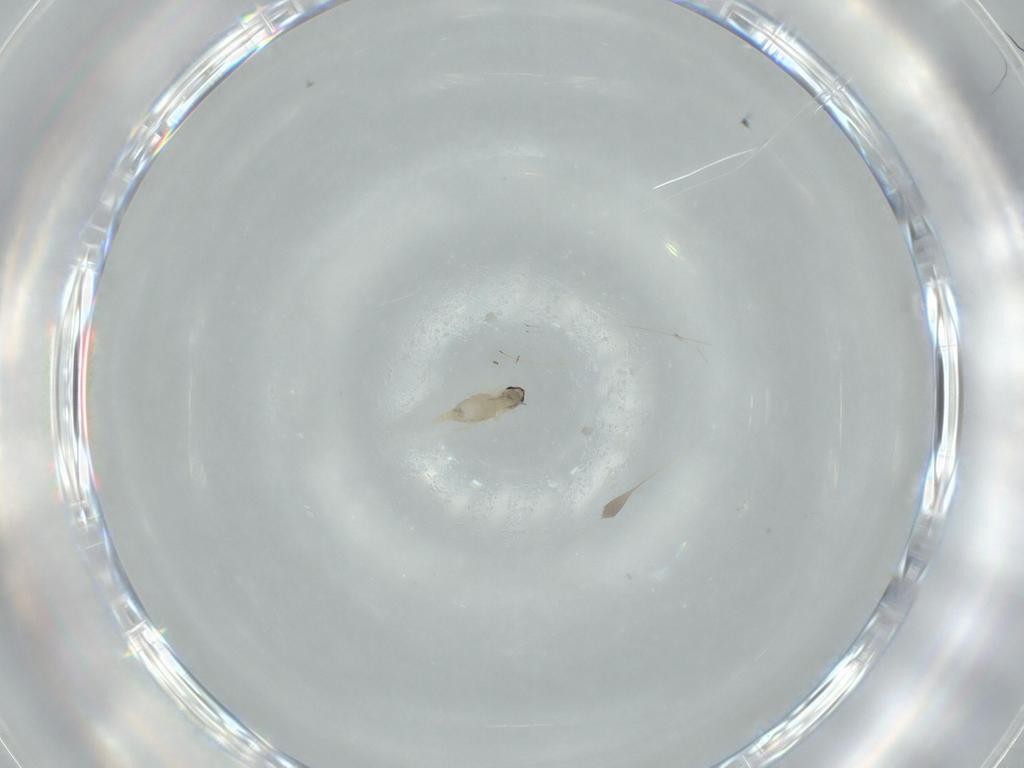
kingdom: Animalia
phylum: Arthropoda
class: Insecta
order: Diptera
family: Cecidomyiidae
